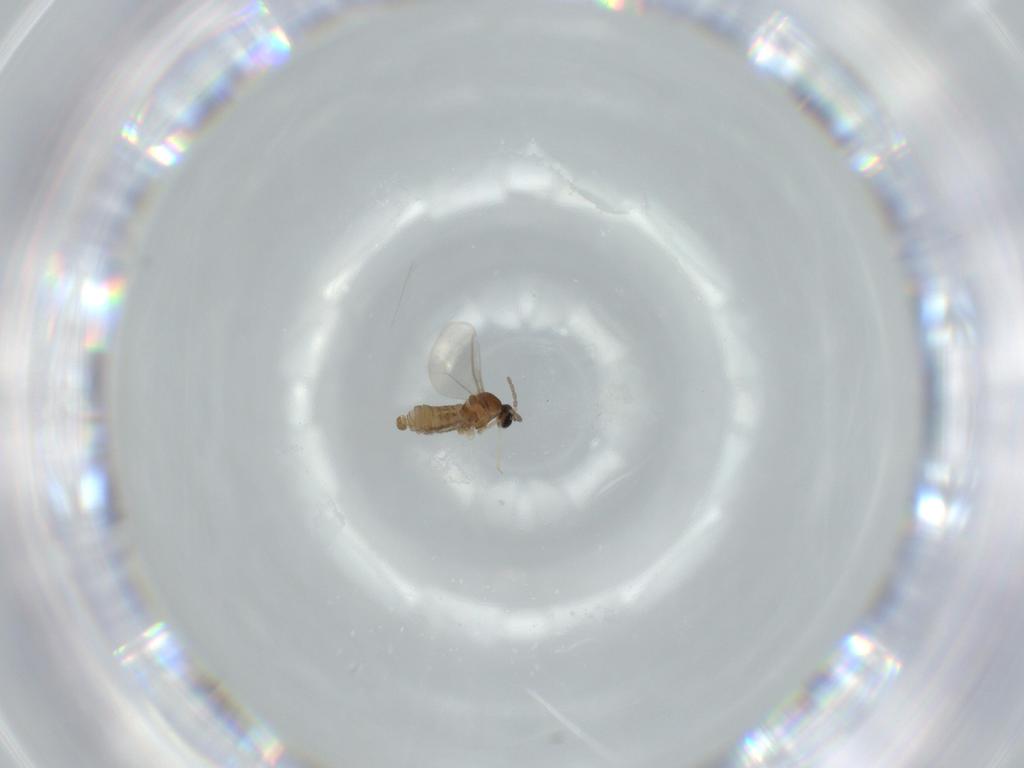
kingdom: Animalia
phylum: Arthropoda
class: Insecta
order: Diptera
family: Cecidomyiidae
